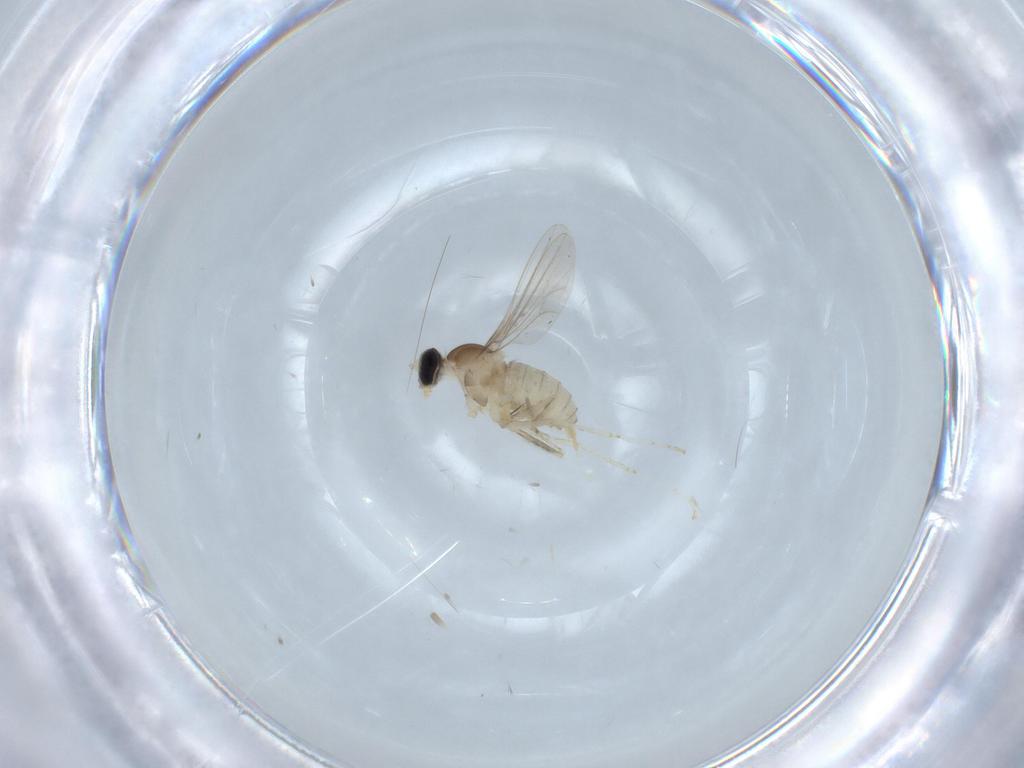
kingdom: Animalia
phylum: Arthropoda
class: Insecta
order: Diptera
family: Cecidomyiidae
